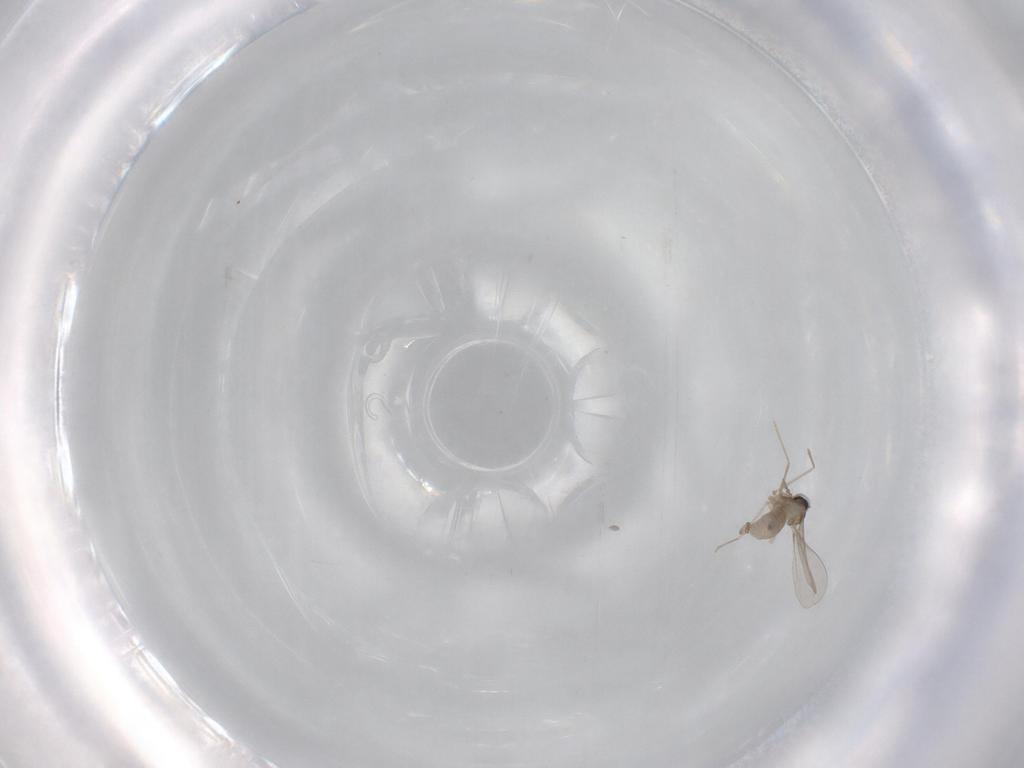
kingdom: Animalia
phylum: Arthropoda
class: Insecta
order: Diptera
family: Cecidomyiidae
